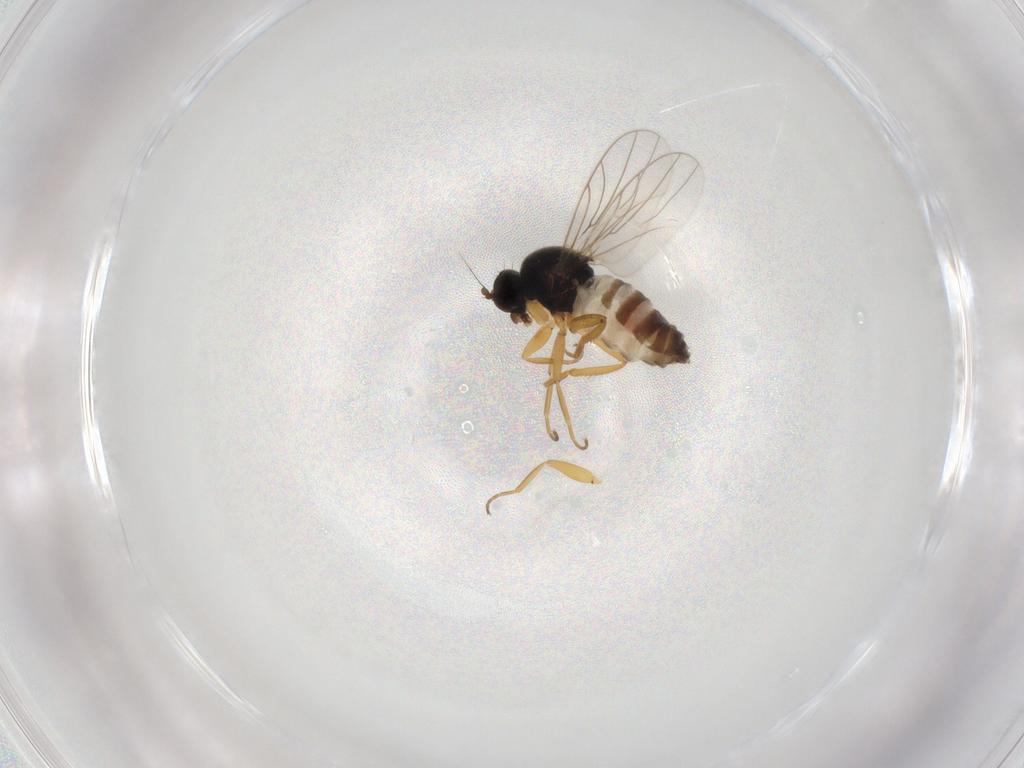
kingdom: Animalia
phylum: Arthropoda
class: Insecta
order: Diptera
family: Hybotidae
